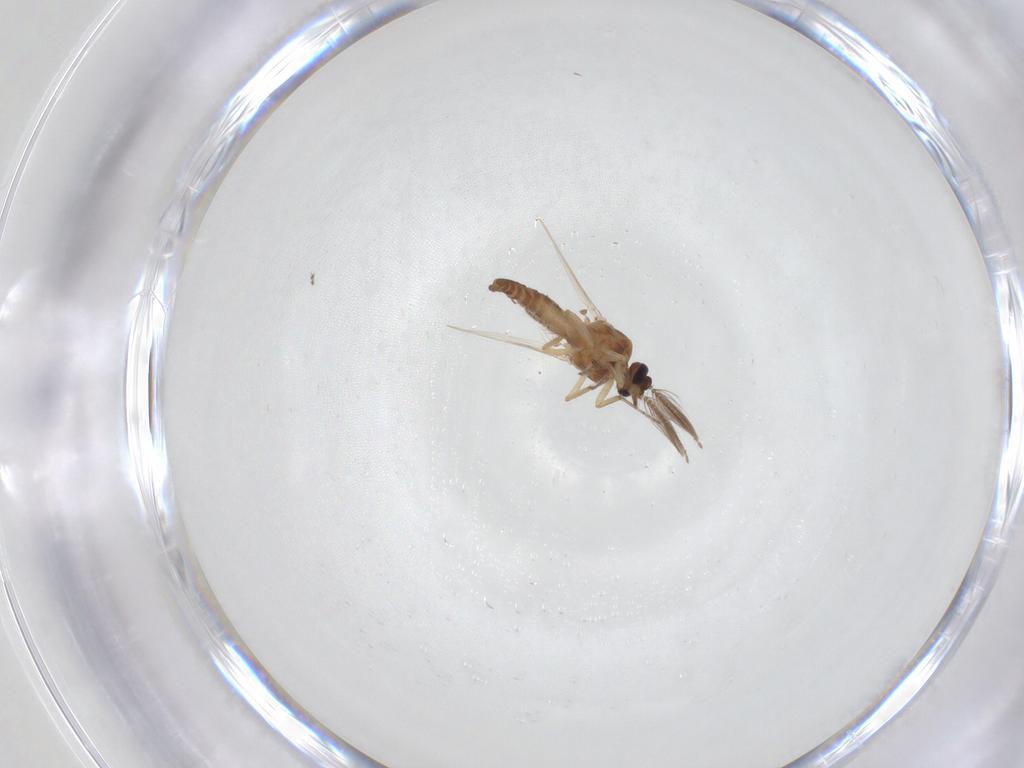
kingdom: Animalia
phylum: Arthropoda
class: Insecta
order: Diptera
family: Ceratopogonidae
